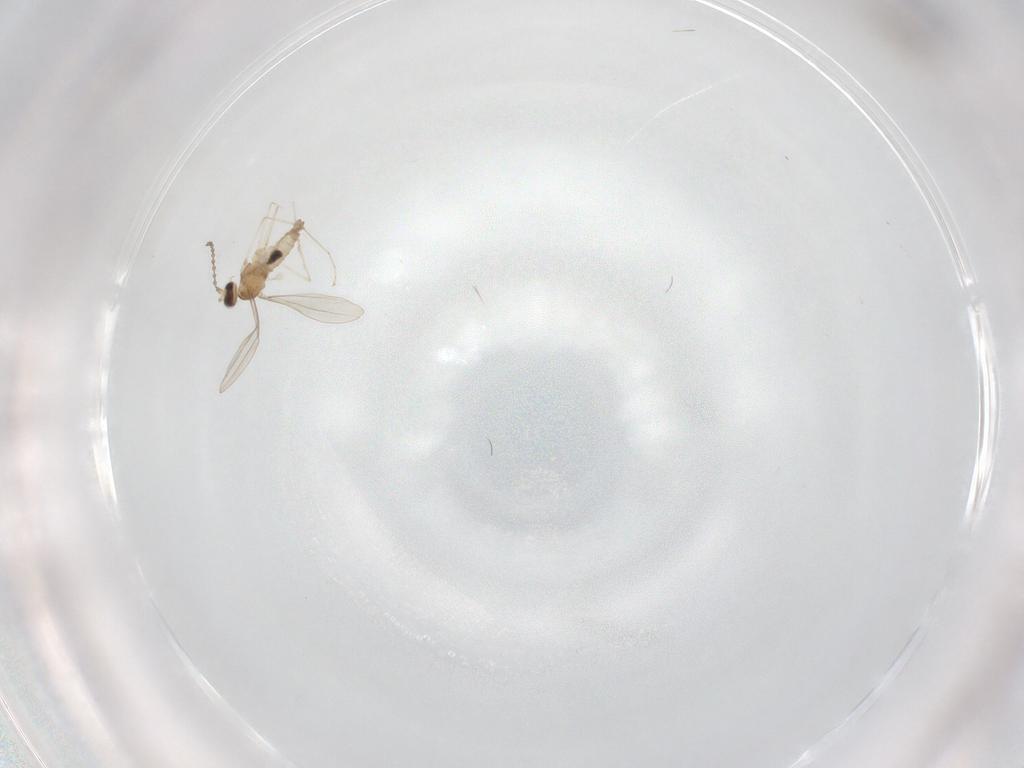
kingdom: Animalia
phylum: Arthropoda
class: Insecta
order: Diptera
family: Cecidomyiidae
